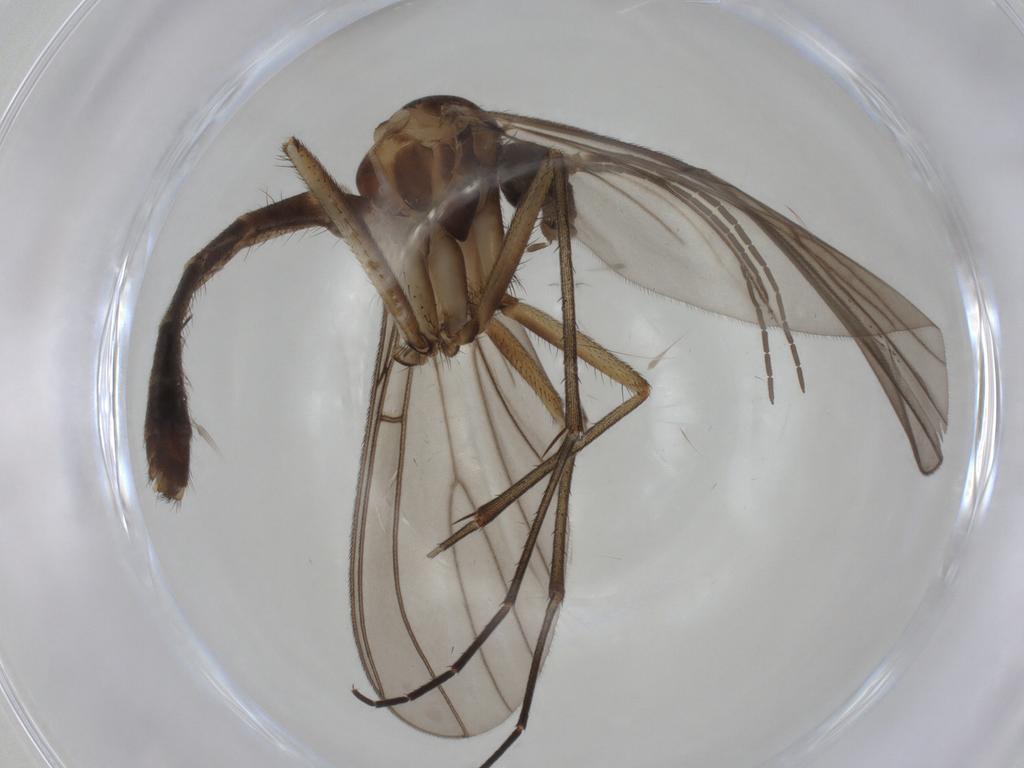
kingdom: Animalia
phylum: Arthropoda
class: Insecta
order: Diptera
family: Mycetophilidae
